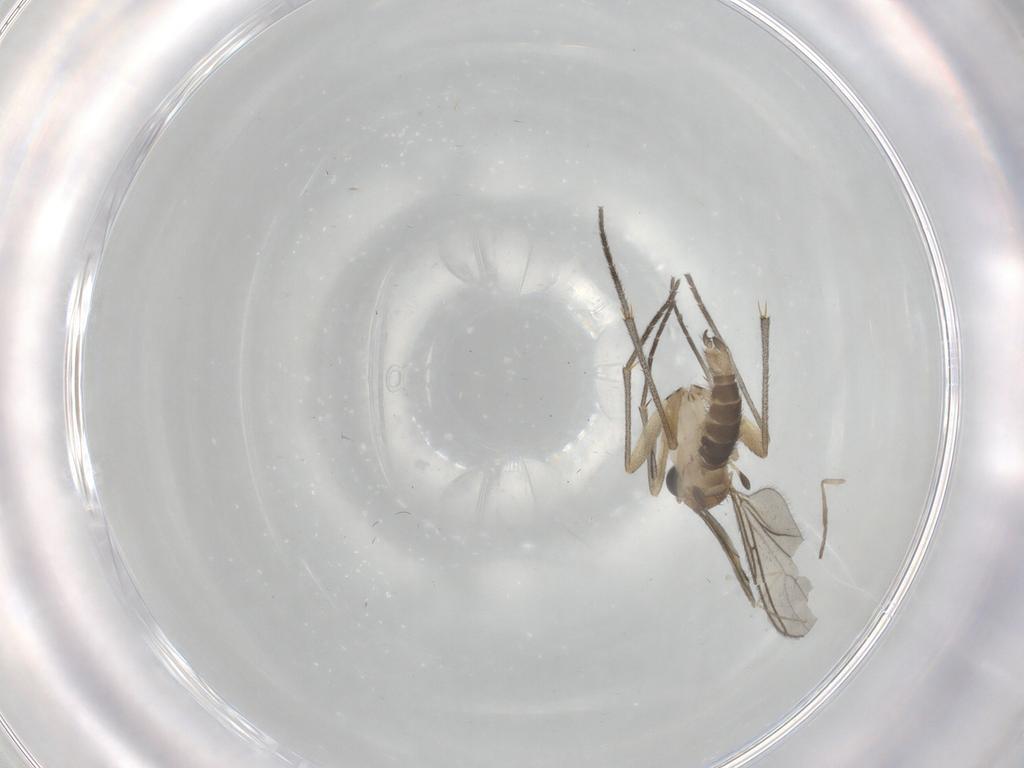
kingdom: Animalia
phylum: Arthropoda
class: Insecta
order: Diptera
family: Sciaridae
